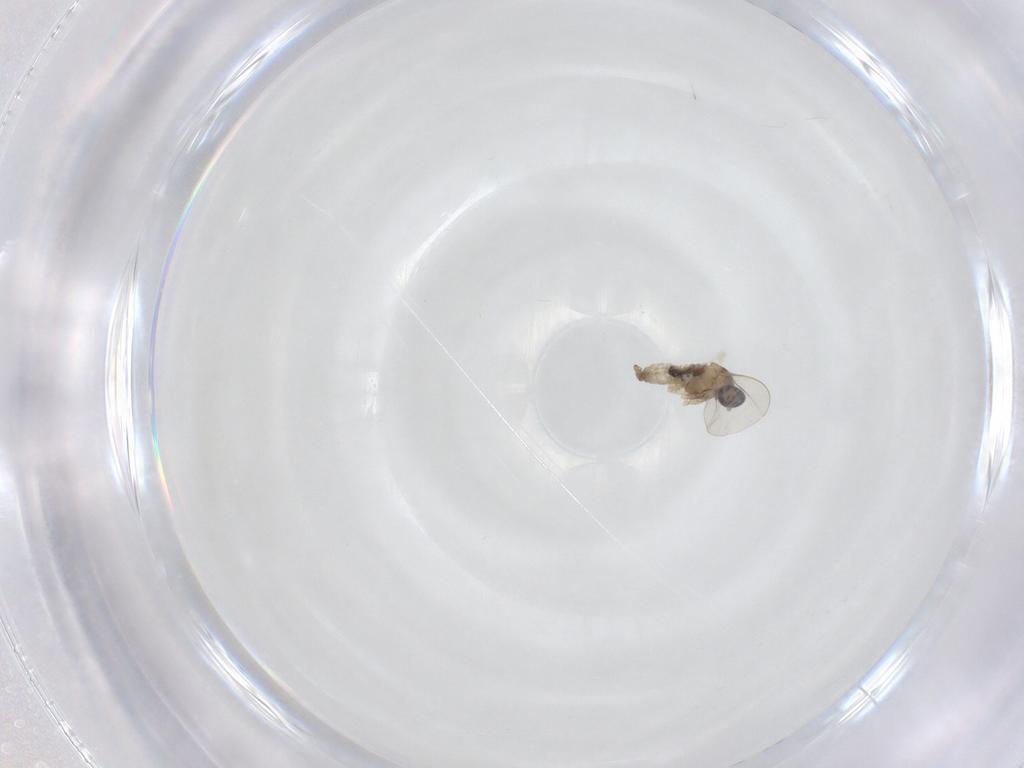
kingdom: Animalia
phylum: Arthropoda
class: Insecta
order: Diptera
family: Cecidomyiidae
